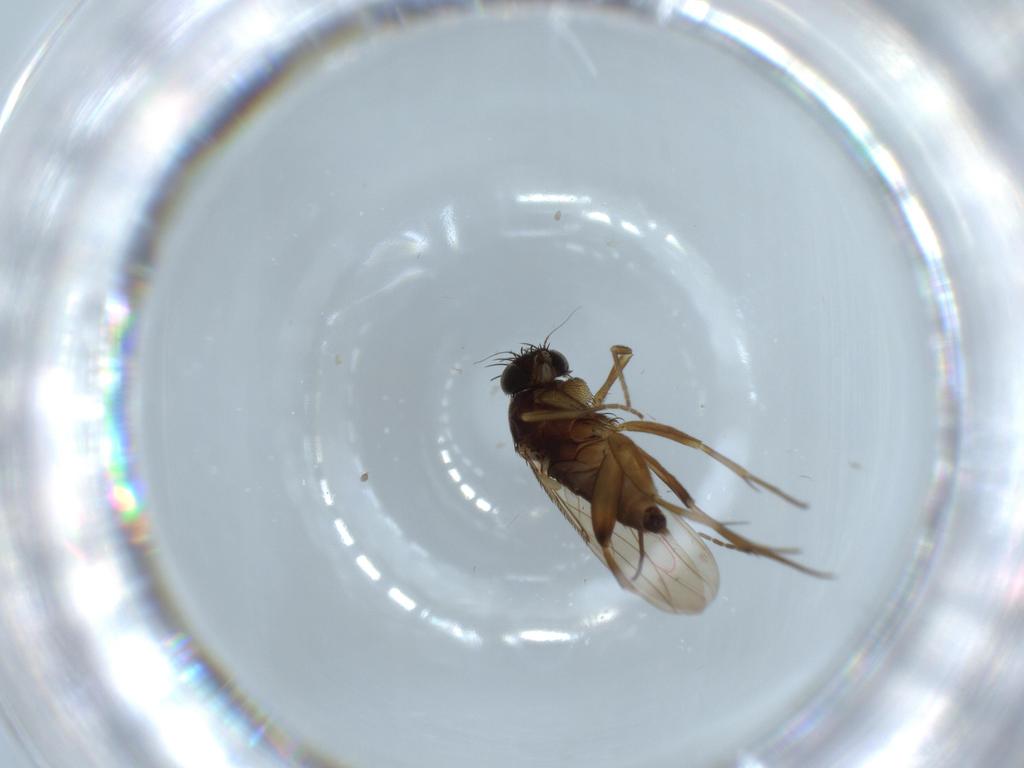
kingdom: Animalia
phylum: Arthropoda
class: Insecta
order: Diptera
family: Phoridae
